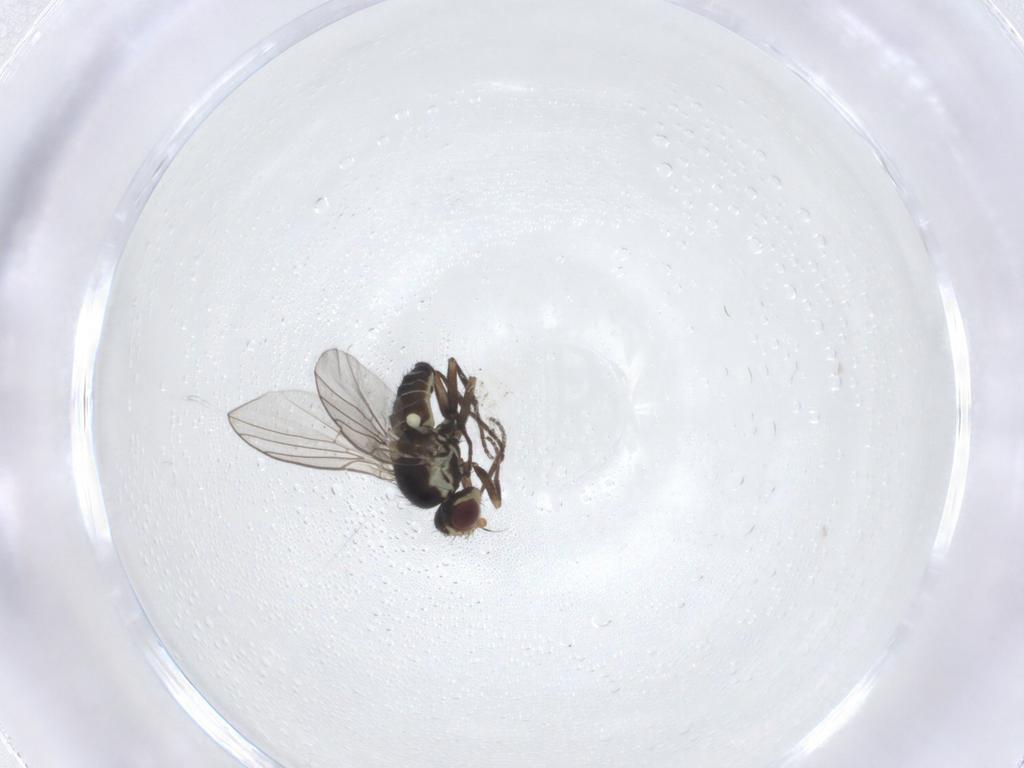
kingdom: Animalia
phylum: Arthropoda
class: Insecta
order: Diptera
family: Agromyzidae
